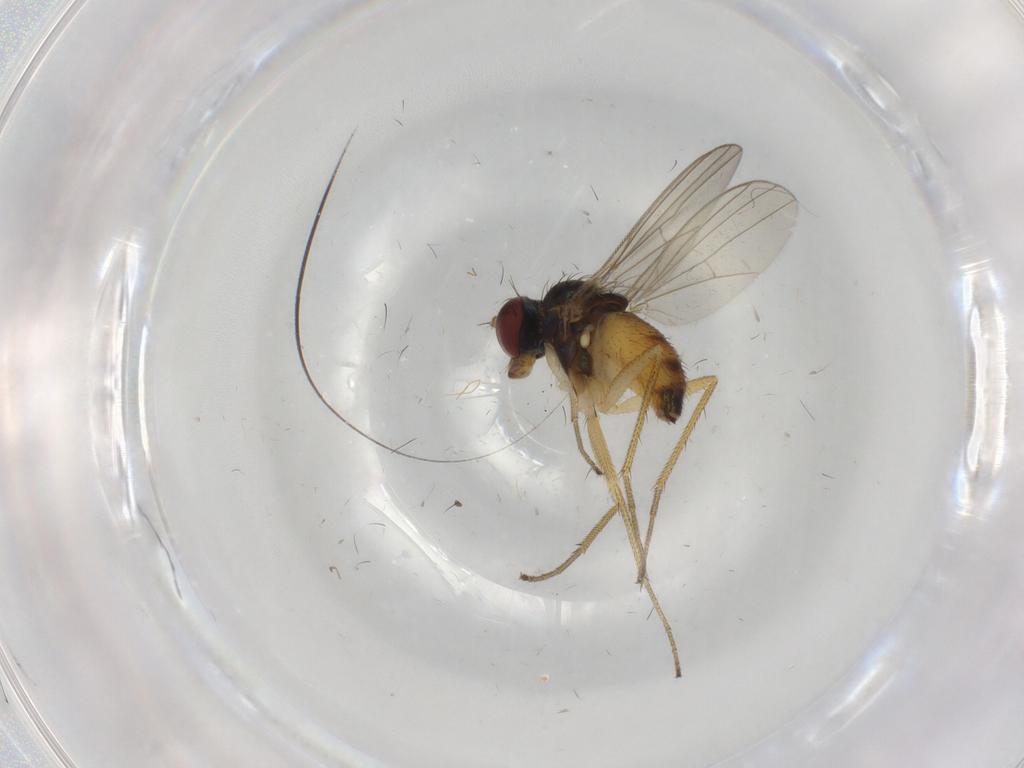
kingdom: Animalia
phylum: Arthropoda
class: Insecta
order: Diptera
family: Dolichopodidae
